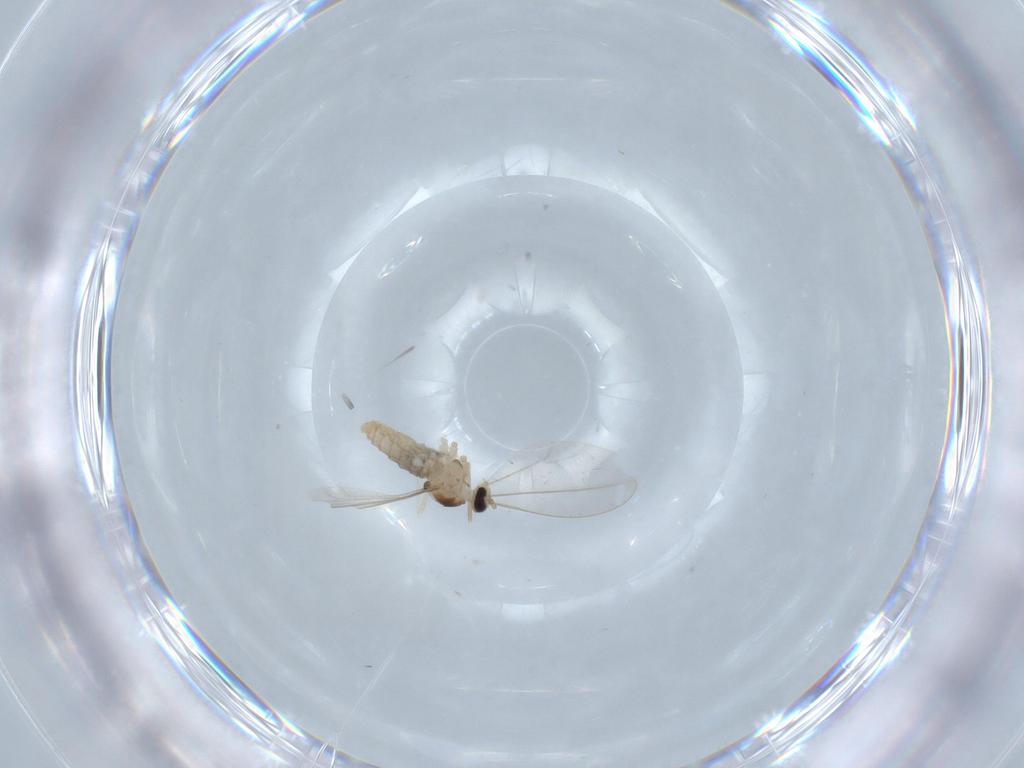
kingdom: Animalia
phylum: Arthropoda
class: Insecta
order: Diptera
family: Cecidomyiidae
